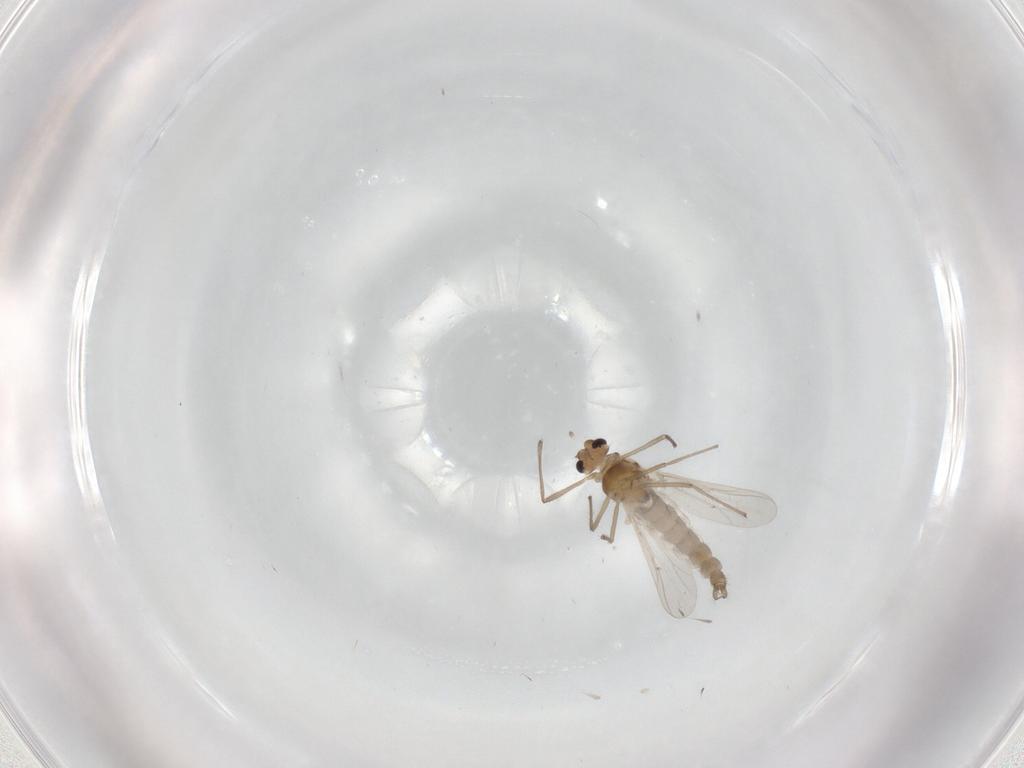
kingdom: Animalia
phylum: Arthropoda
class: Insecta
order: Diptera
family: Chironomidae
